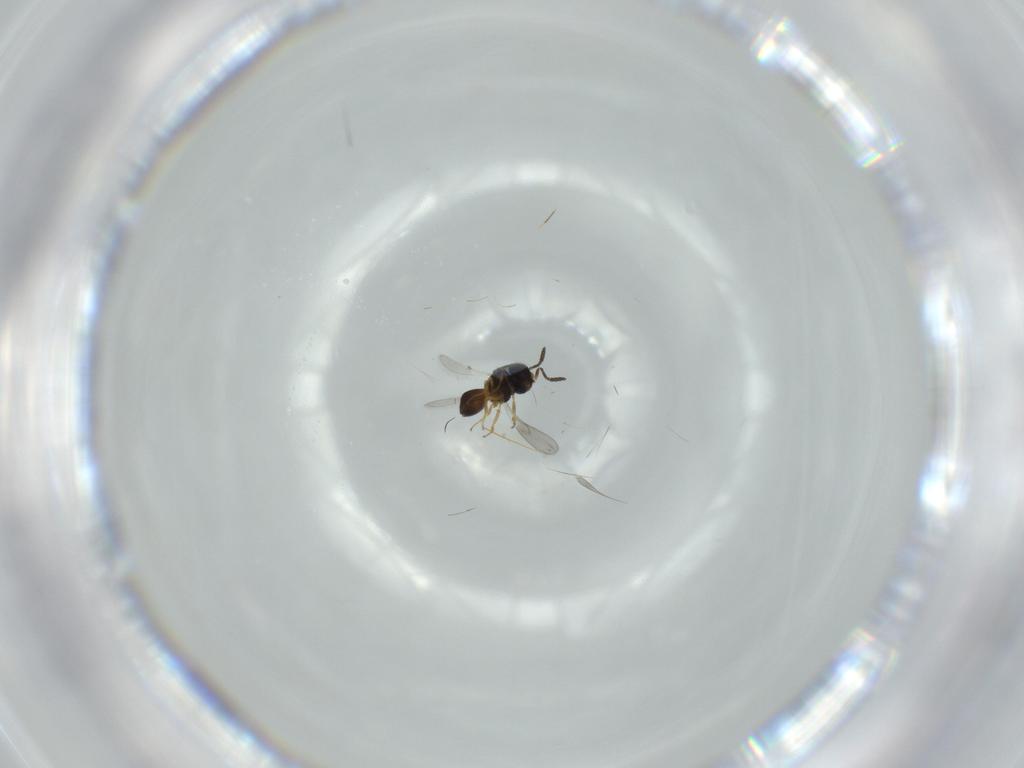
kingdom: Animalia
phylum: Arthropoda
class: Insecta
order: Hymenoptera
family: Scelionidae
